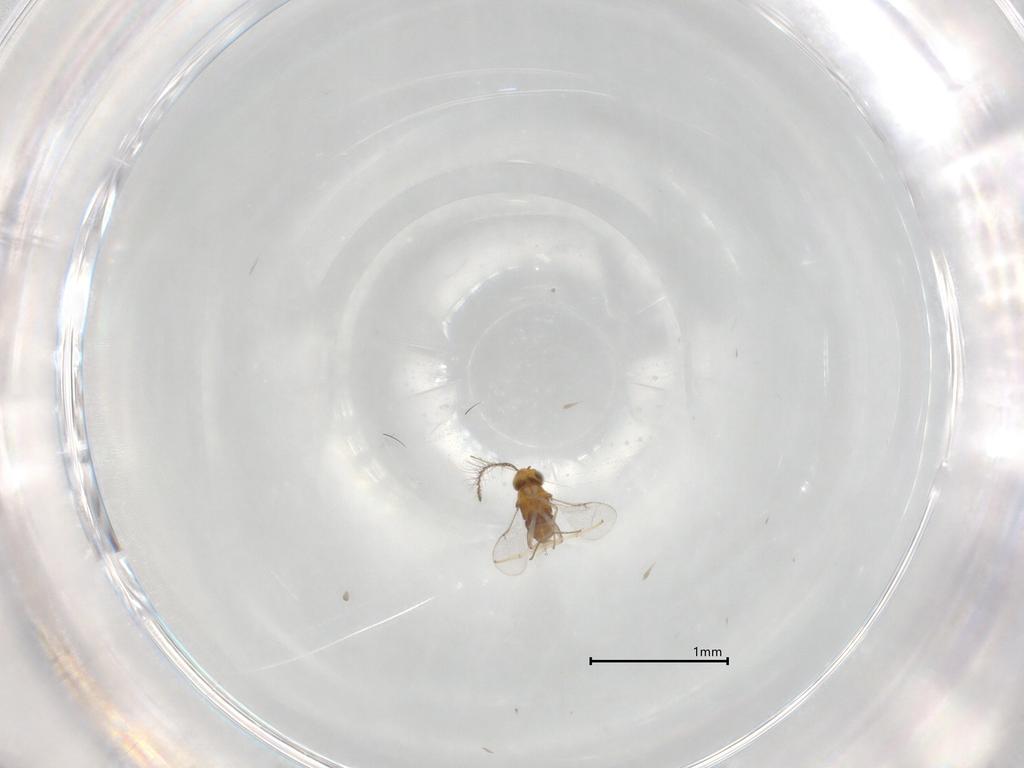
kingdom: Animalia
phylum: Arthropoda
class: Insecta
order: Hymenoptera
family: Encyrtidae
